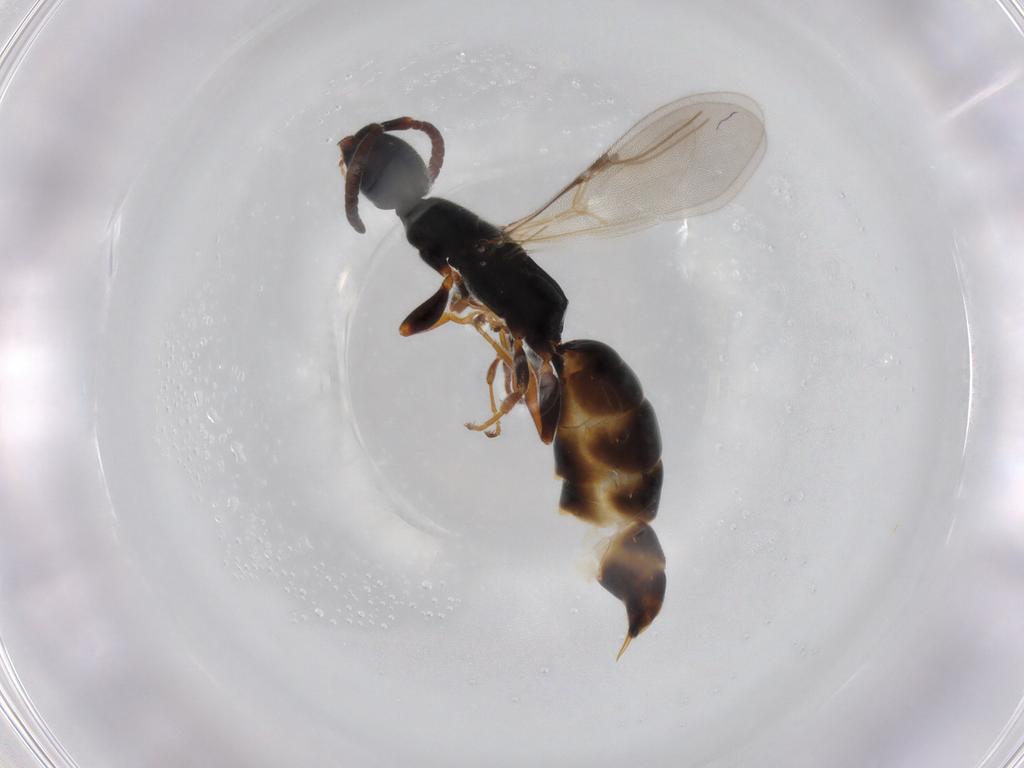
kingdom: Animalia
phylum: Arthropoda
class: Insecta
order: Hymenoptera
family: Bethylidae
